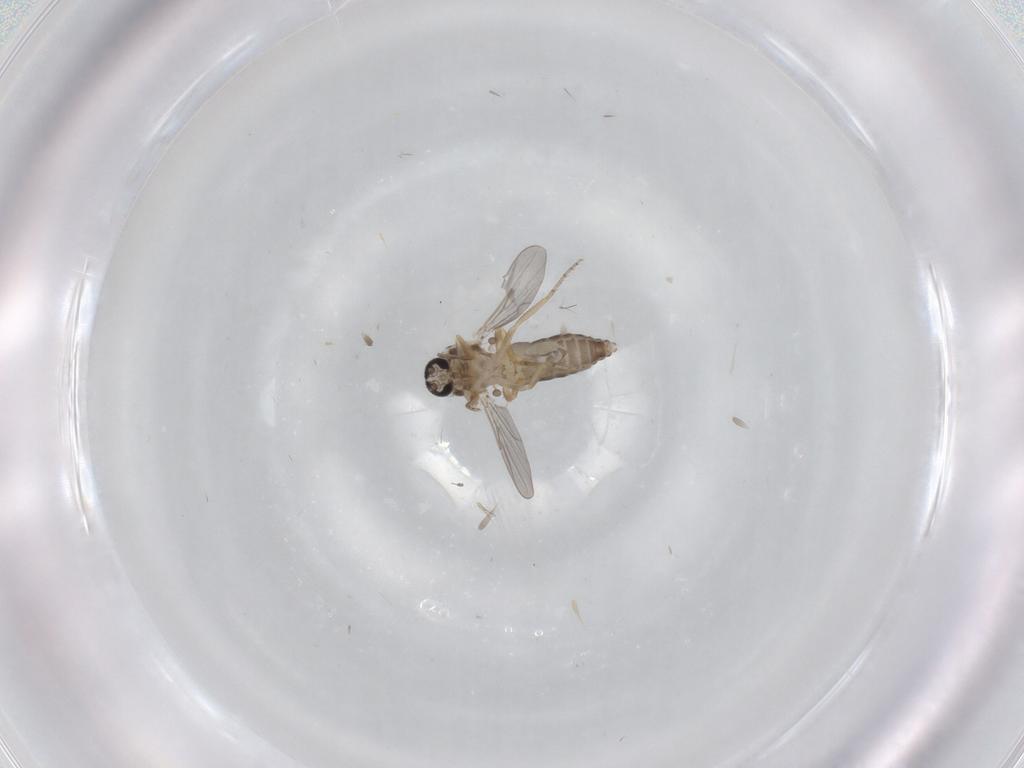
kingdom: Animalia
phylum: Arthropoda
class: Insecta
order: Diptera
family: Ceratopogonidae
